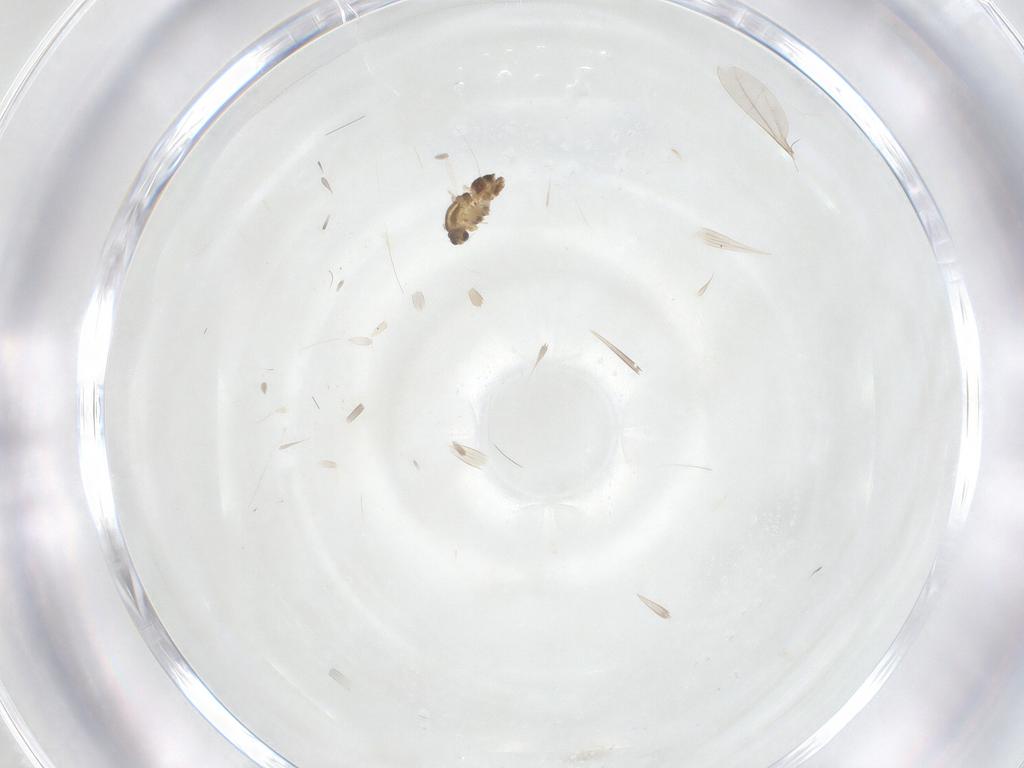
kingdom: Animalia
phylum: Arthropoda
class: Insecta
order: Diptera
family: Chironomidae
